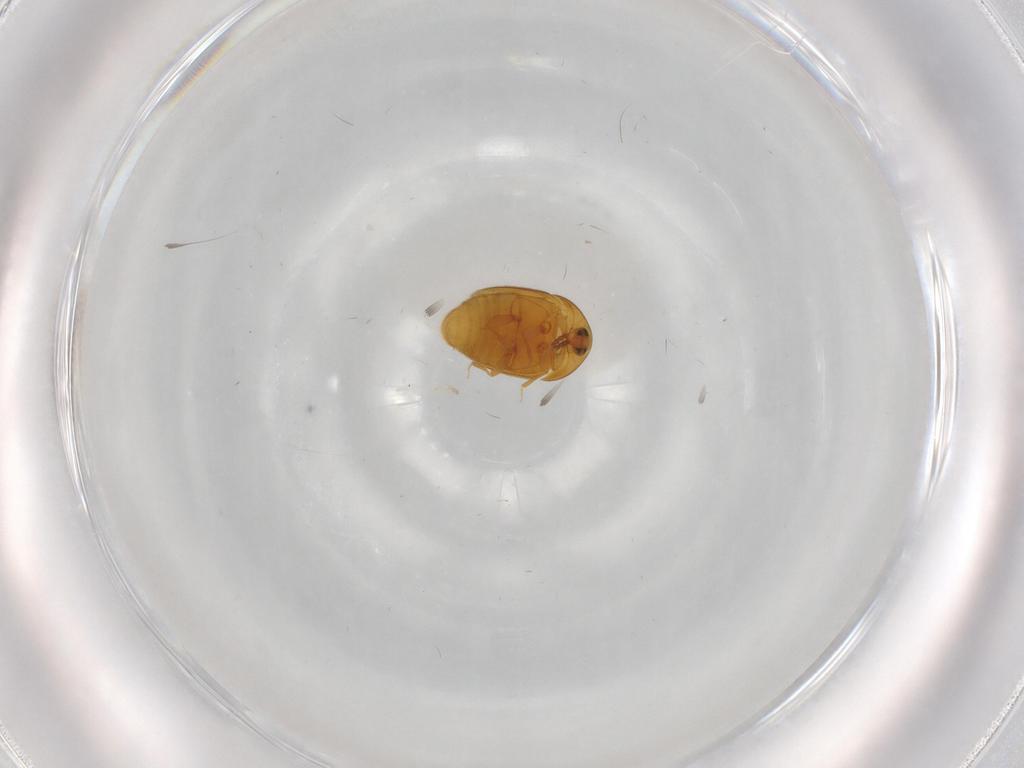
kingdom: Animalia
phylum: Arthropoda
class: Insecta
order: Coleoptera
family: Corylophidae
